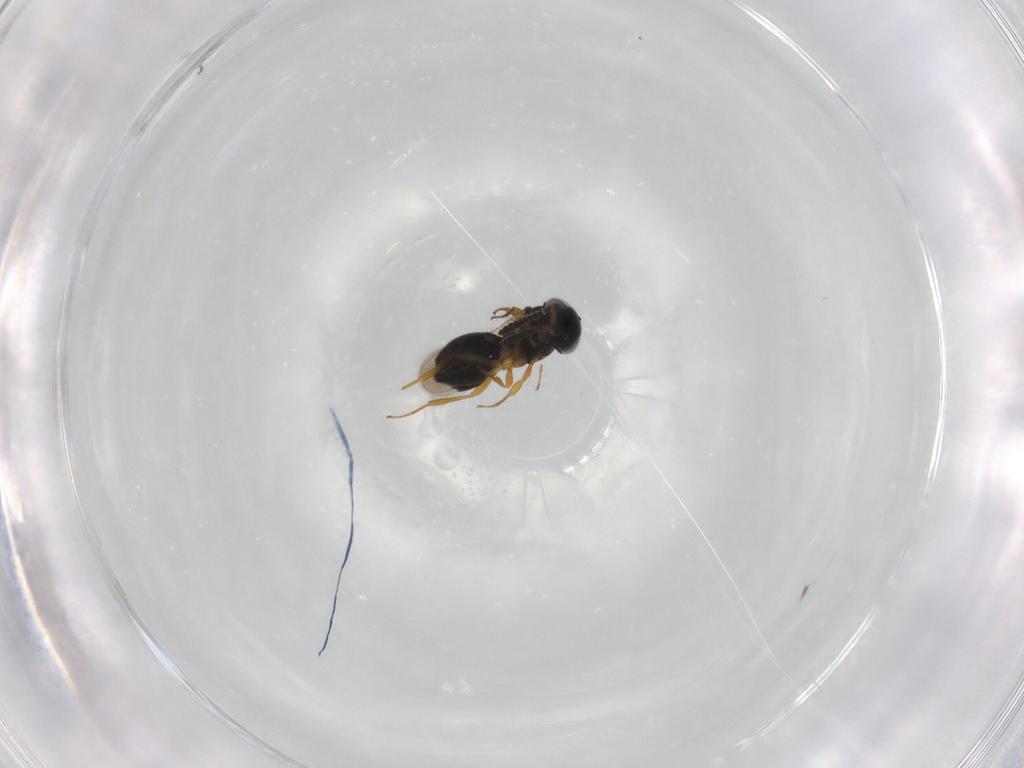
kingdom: Animalia
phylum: Arthropoda
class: Insecta
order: Hymenoptera
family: Scelionidae
